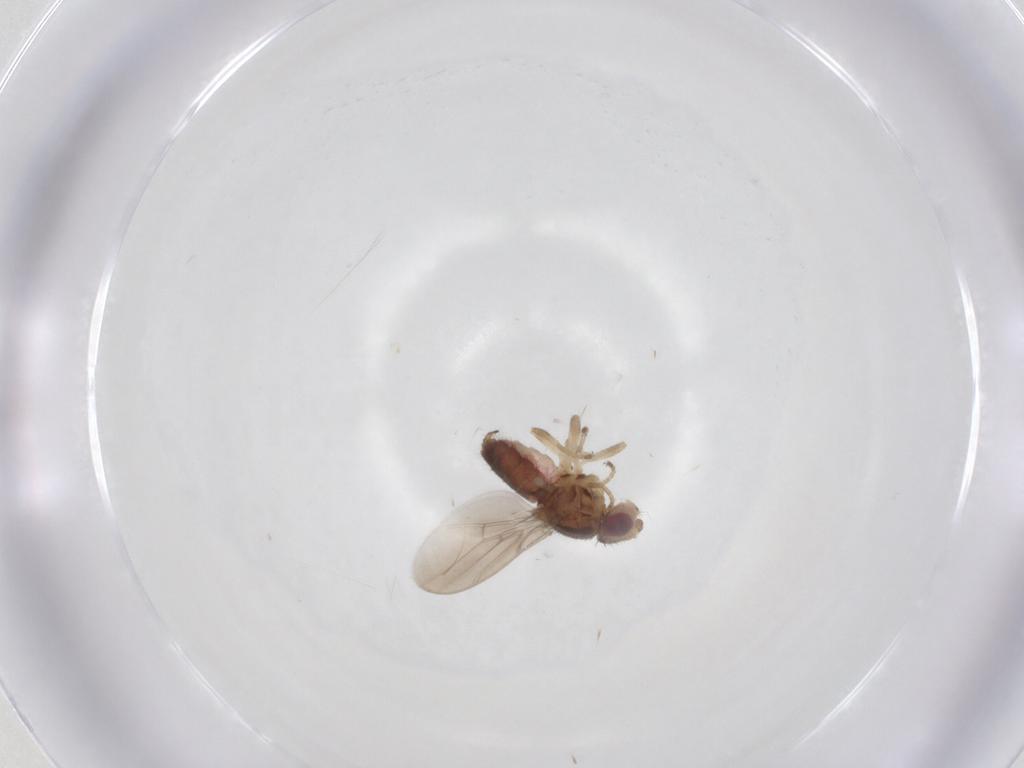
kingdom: Animalia
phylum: Arthropoda
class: Insecta
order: Diptera
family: Chloropidae
